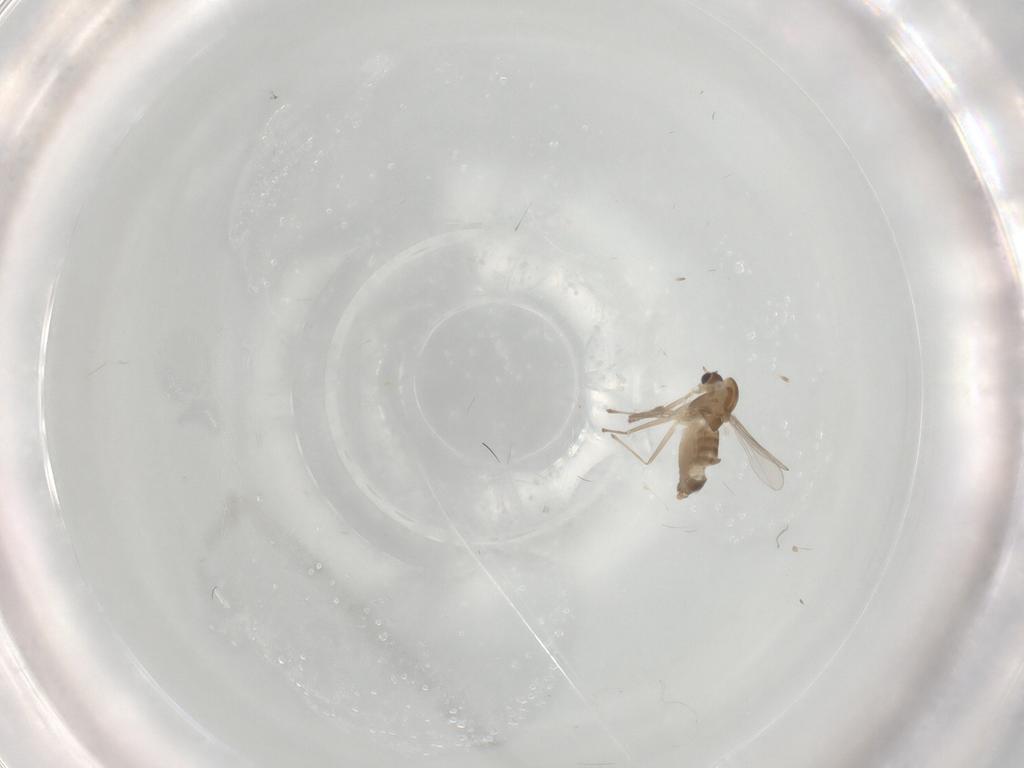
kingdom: Animalia
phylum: Arthropoda
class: Insecta
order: Diptera
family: Chironomidae
